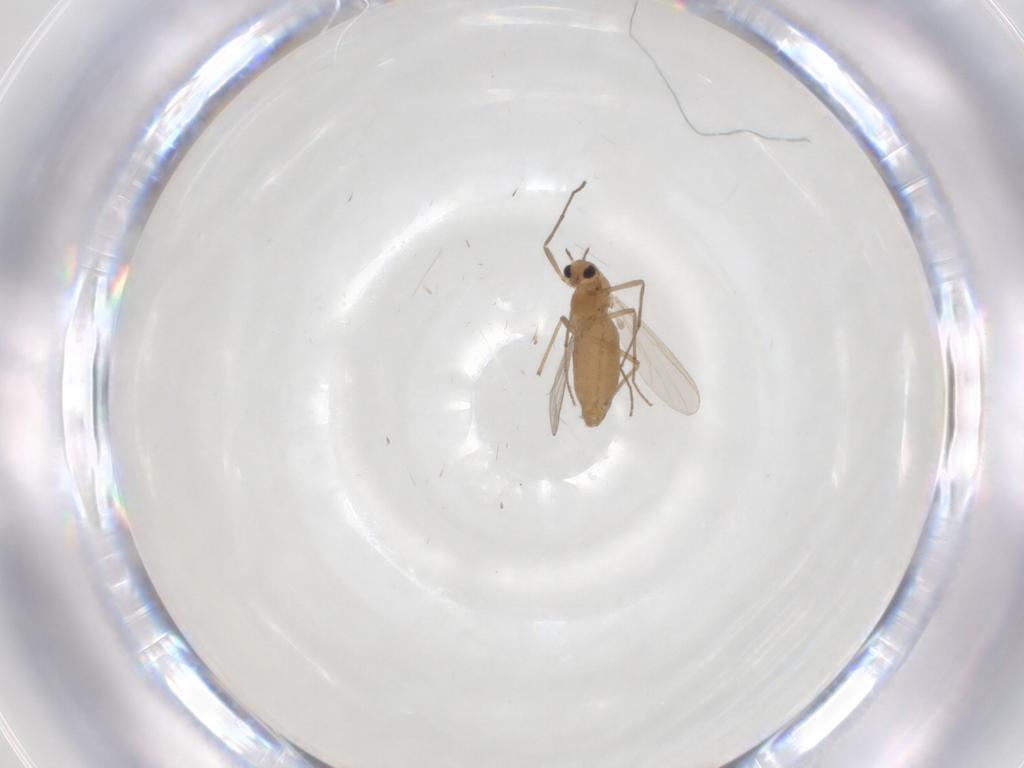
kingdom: Animalia
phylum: Arthropoda
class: Insecta
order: Diptera
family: Chironomidae
